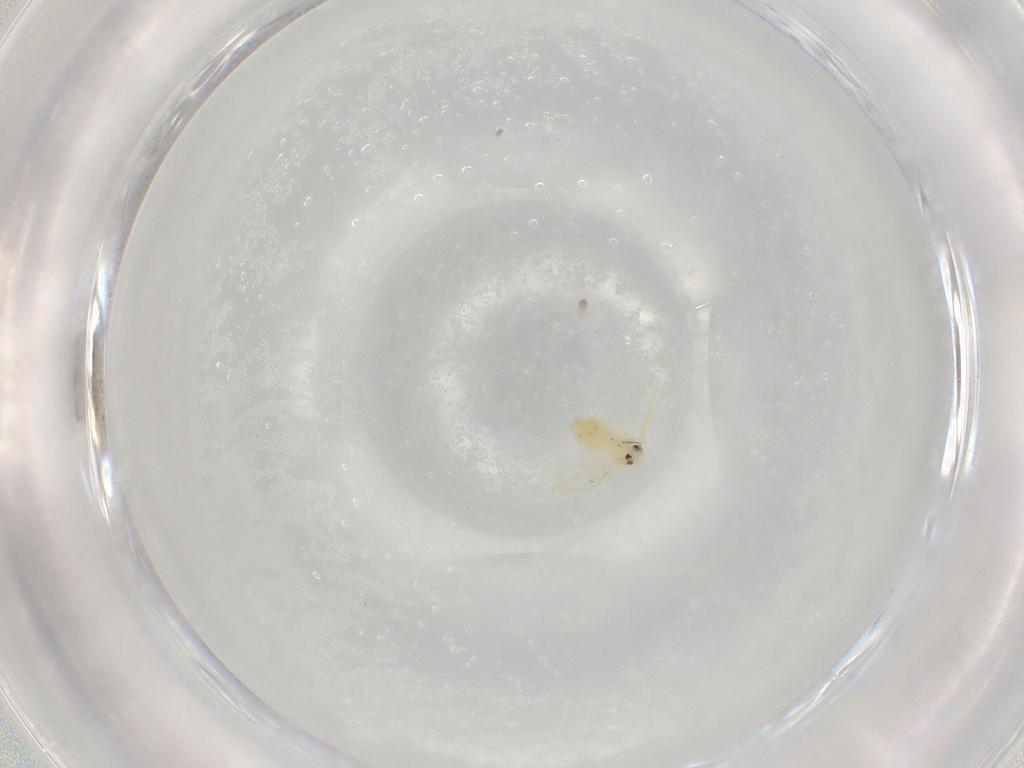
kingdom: Animalia
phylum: Arthropoda
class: Insecta
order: Hemiptera
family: Aleyrodidae
